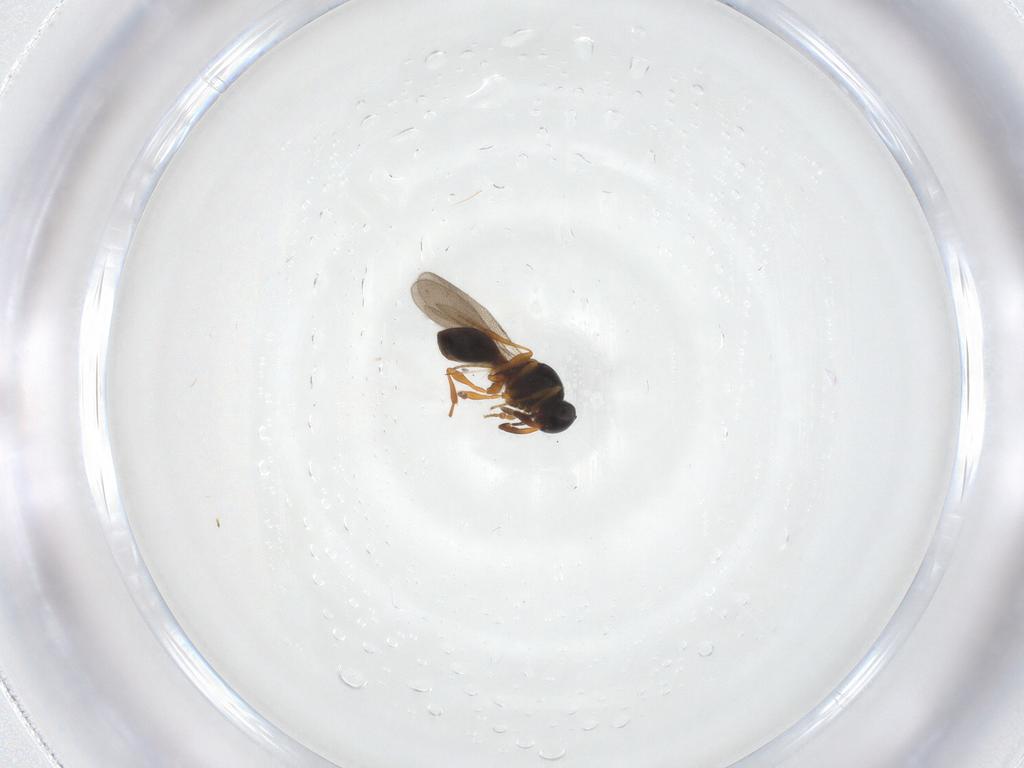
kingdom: Animalia
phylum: Arthropoda
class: Insecta
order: Hymenoptera
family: Platygastridae
